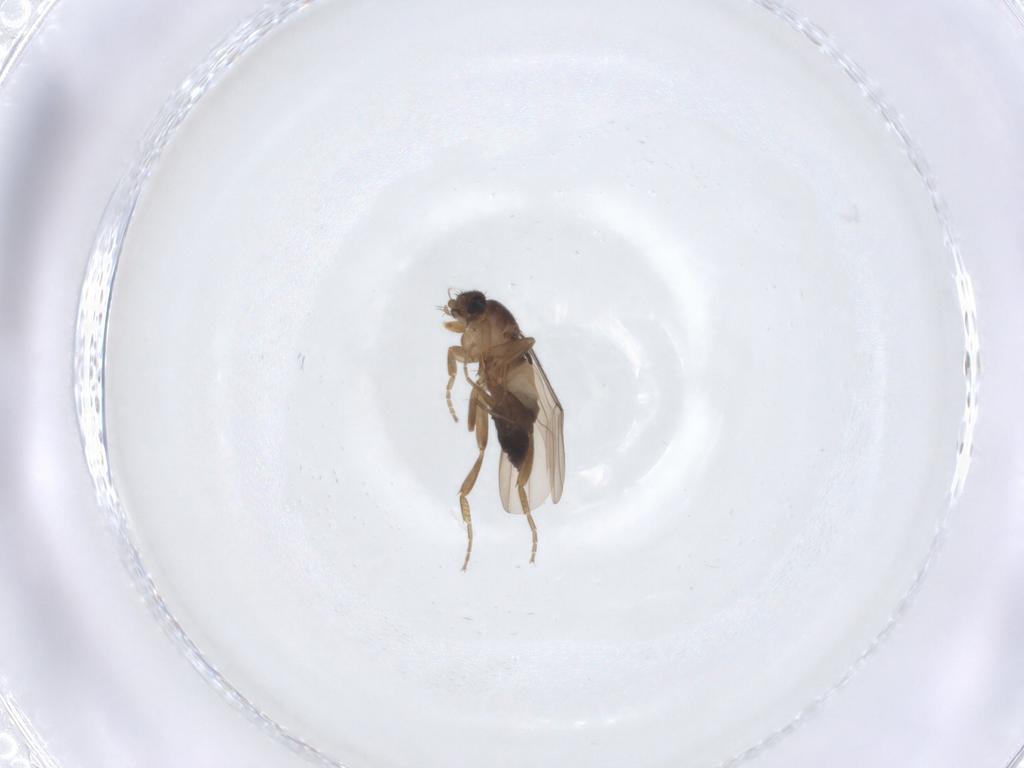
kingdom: Animalia
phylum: Arthropoda
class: Insecta
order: Diptera
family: Phoridae
